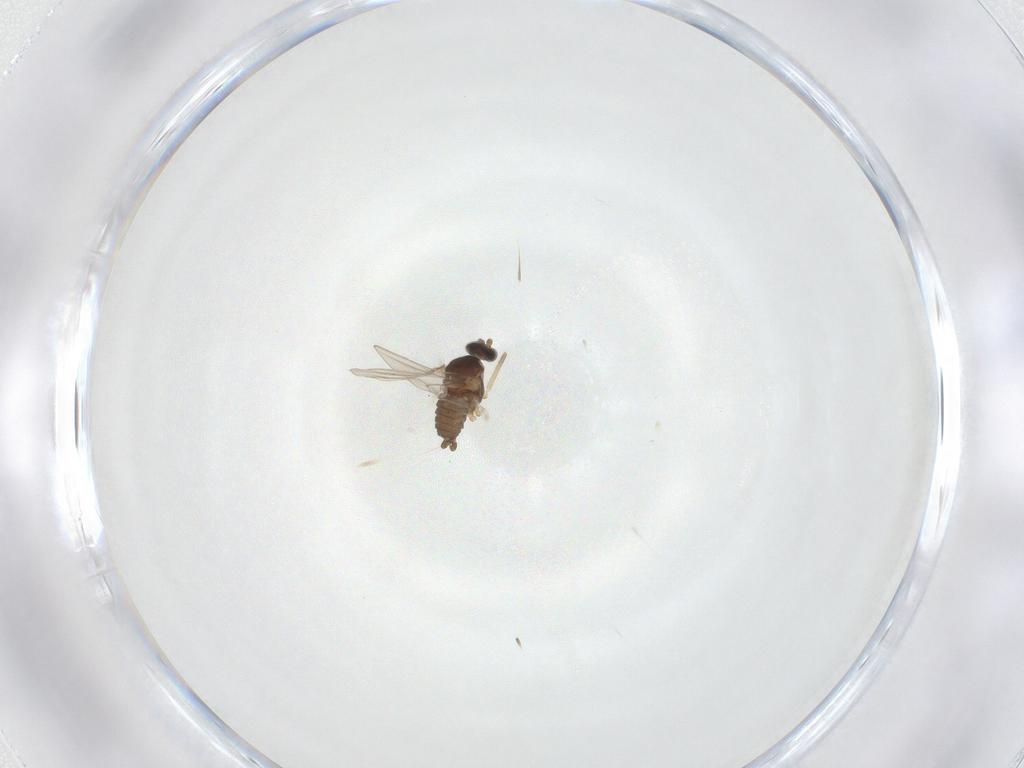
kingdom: Animalia
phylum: Arthropoda
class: Insecta
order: Diptera
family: Cecidomyiidae
